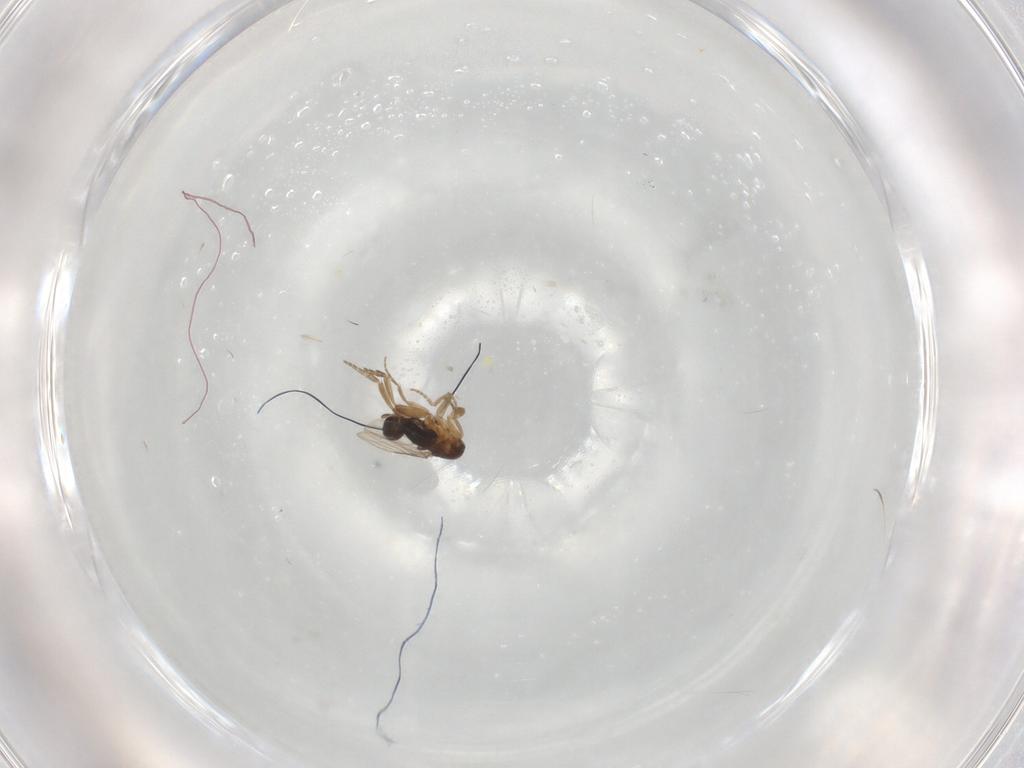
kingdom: Animalia
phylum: Arthropoda
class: Insecta
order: Diptera
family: Phoridae
